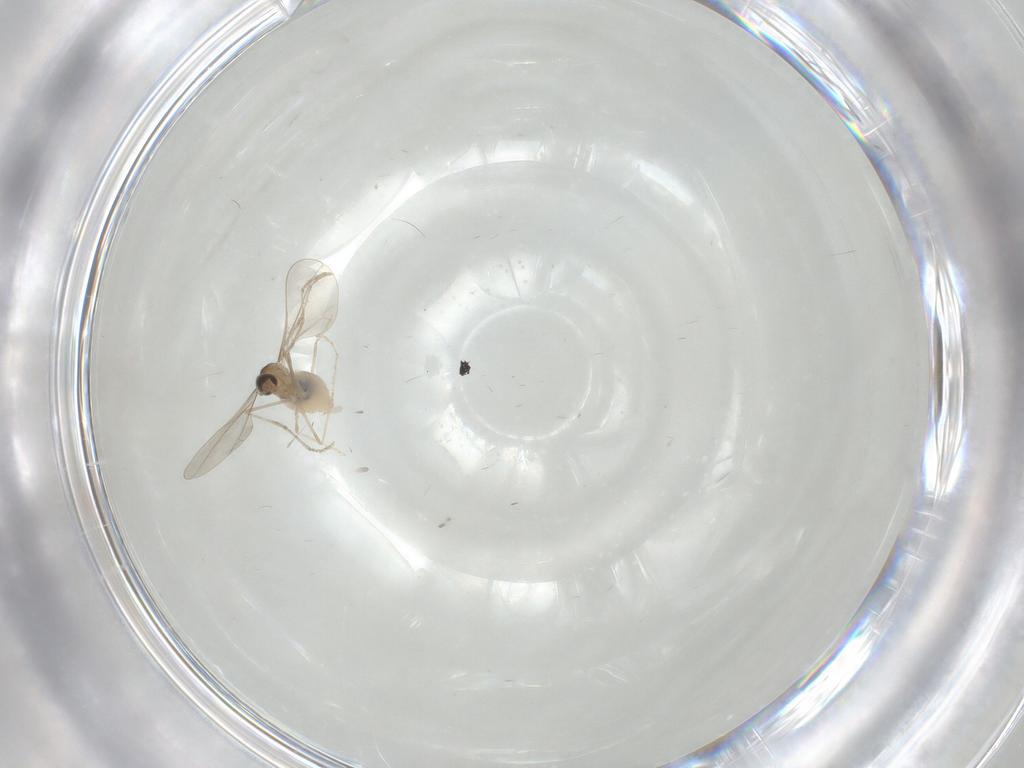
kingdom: Animalia
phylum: Arthropoda
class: Insecta
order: Diptera
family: Cecidomyiidae
